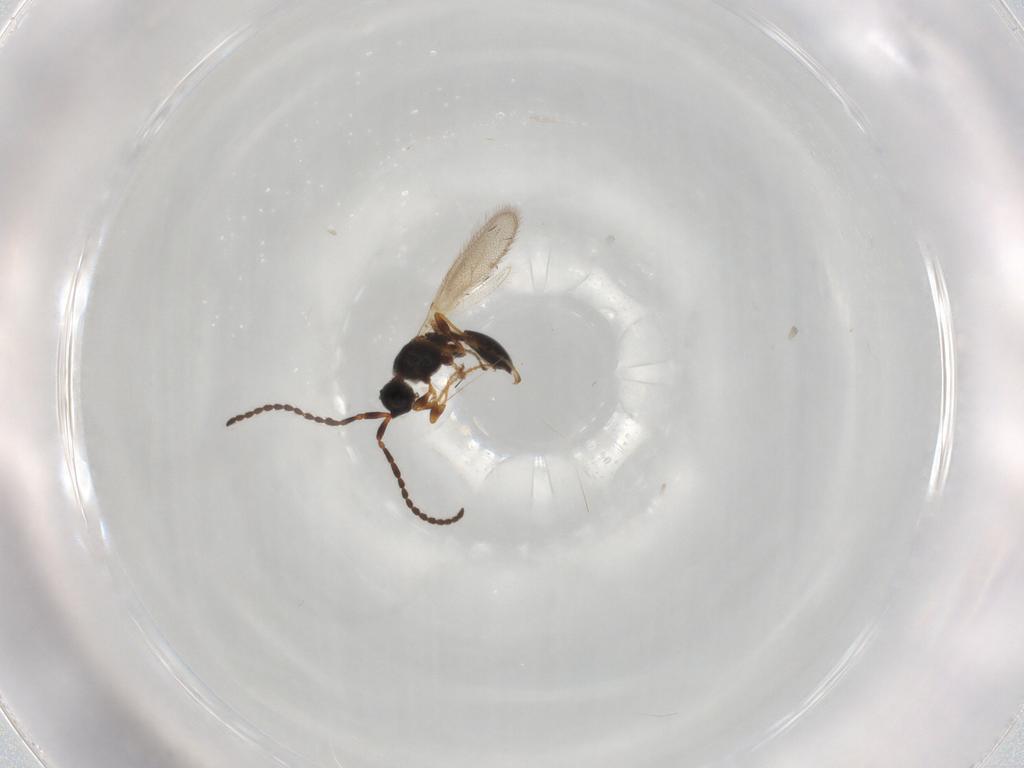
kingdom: Animalia
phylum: Arthropoda
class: Insecta
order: Hymenoptera
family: Diapriidae
